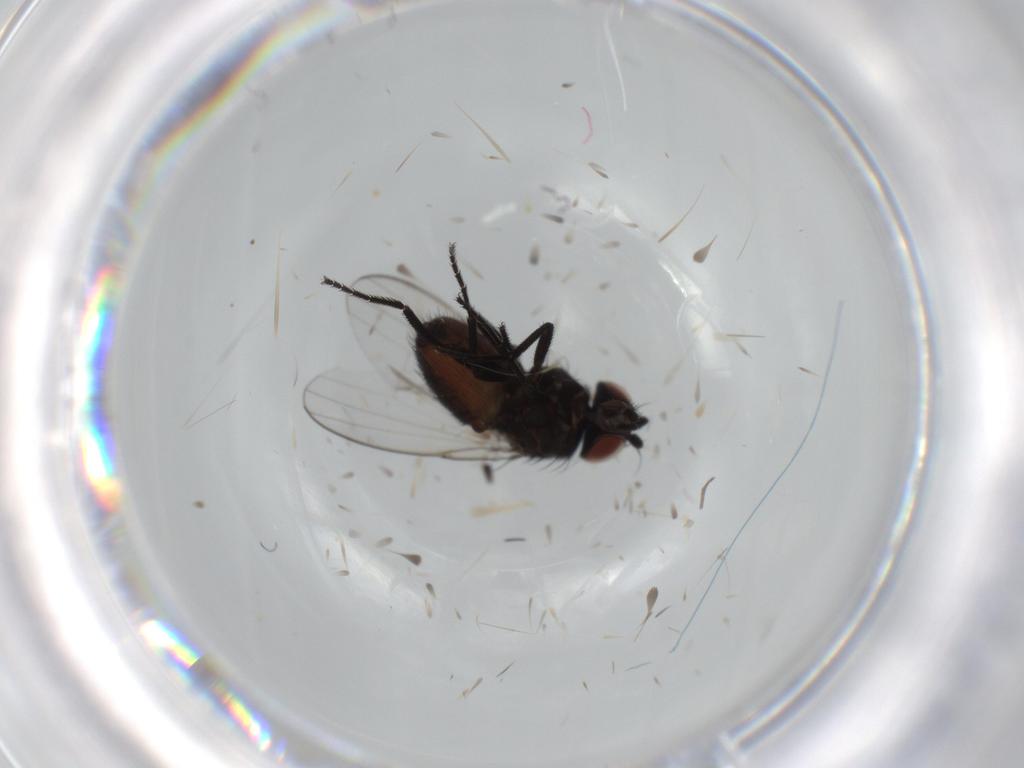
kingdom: Animalia
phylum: Arthropoda
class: Insecta
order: Diptera
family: Milichiidae
